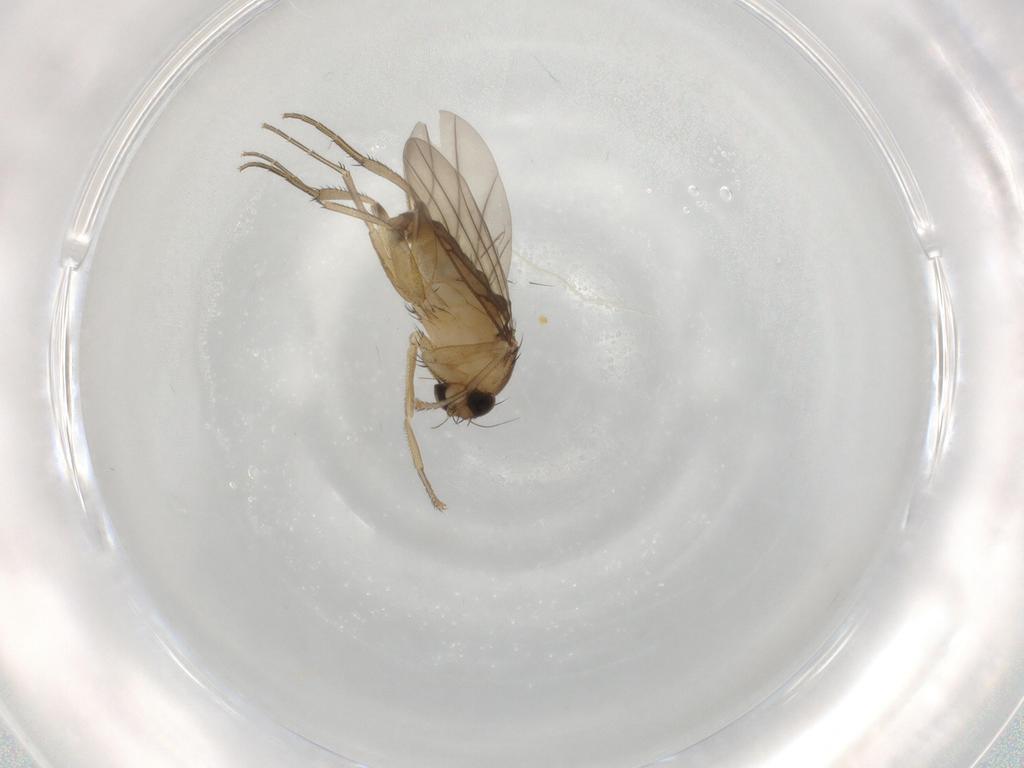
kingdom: Animalia
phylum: Arthropoda
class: Insecta
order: Diptera
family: Phoridae
